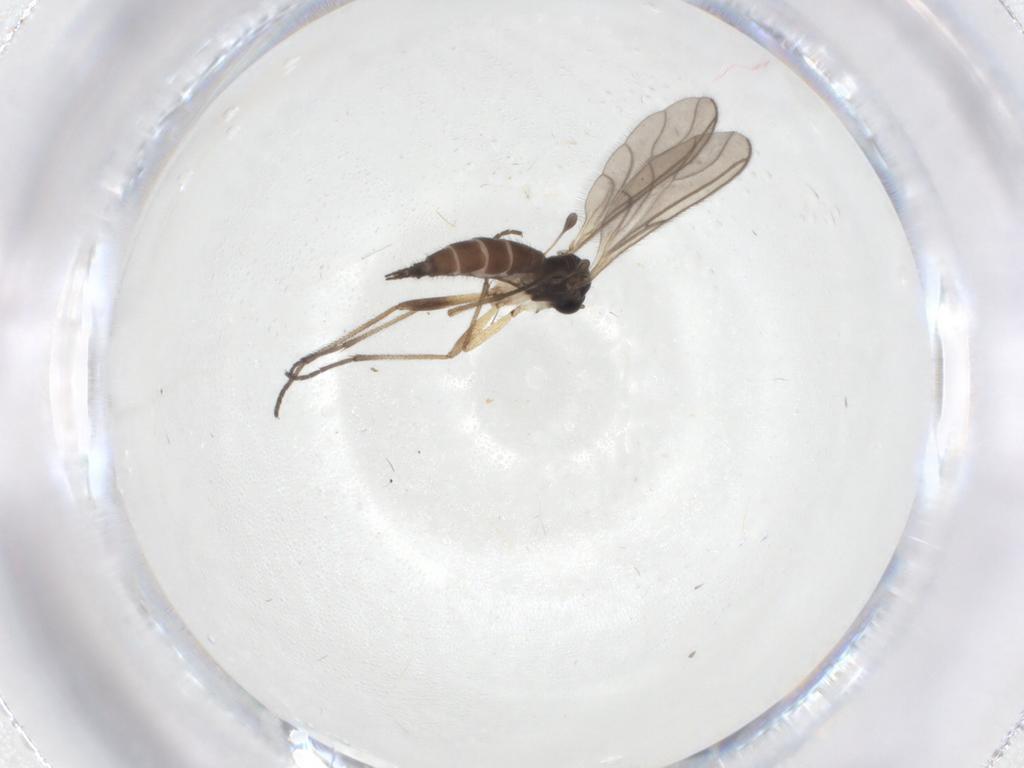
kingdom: Animalia
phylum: Arthropoda
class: Insecta
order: Diptera
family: Sciaridae
